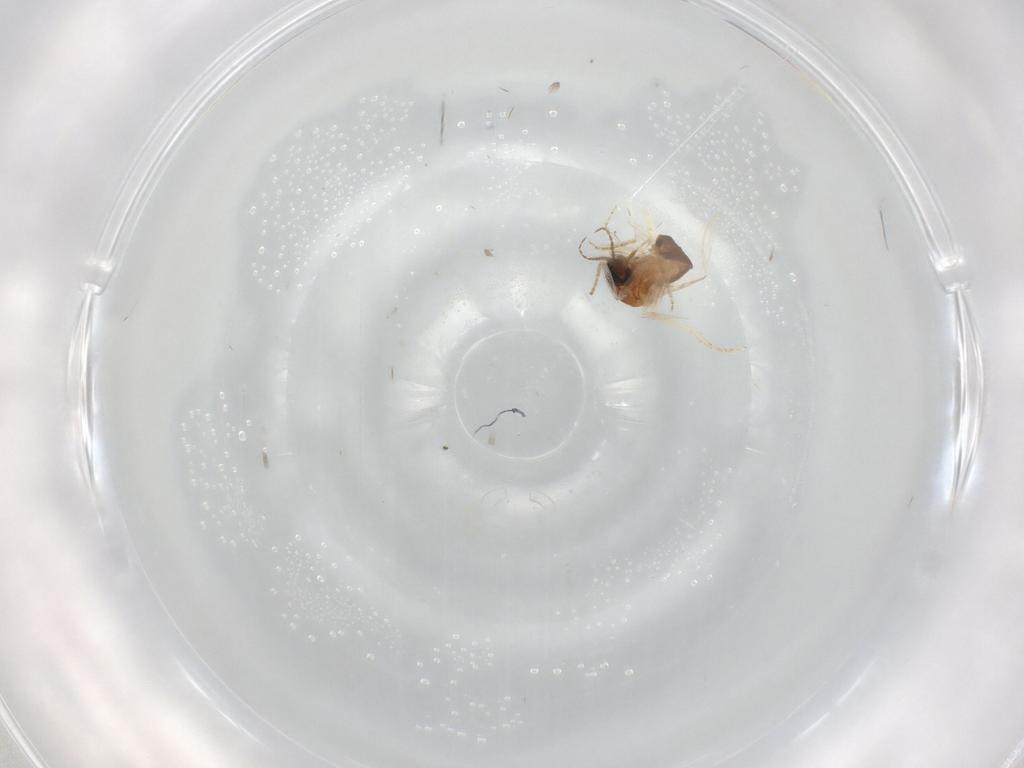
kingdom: Animalia
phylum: Arthropoda
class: Insecta
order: Diptera
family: Ceratopogonidae
